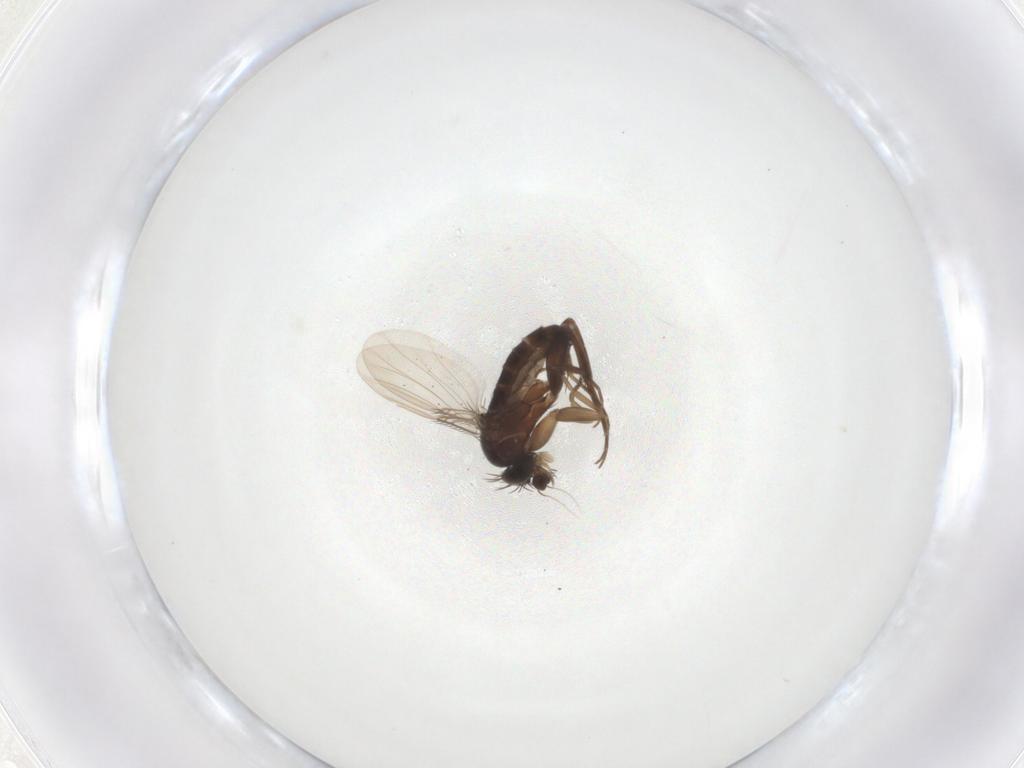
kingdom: Animalia
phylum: Arthropoda
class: Insecta
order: Diptera
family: Phoridae
